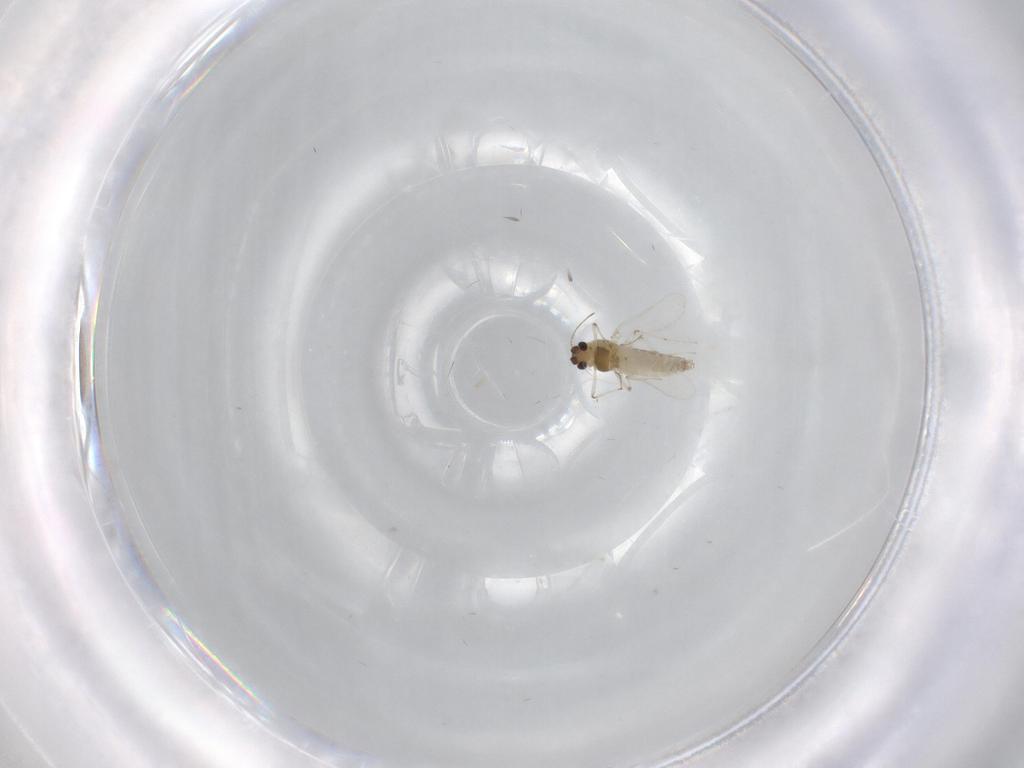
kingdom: Animalia
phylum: Arthropoda
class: Insecta
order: Diptera
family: Chironomidae
